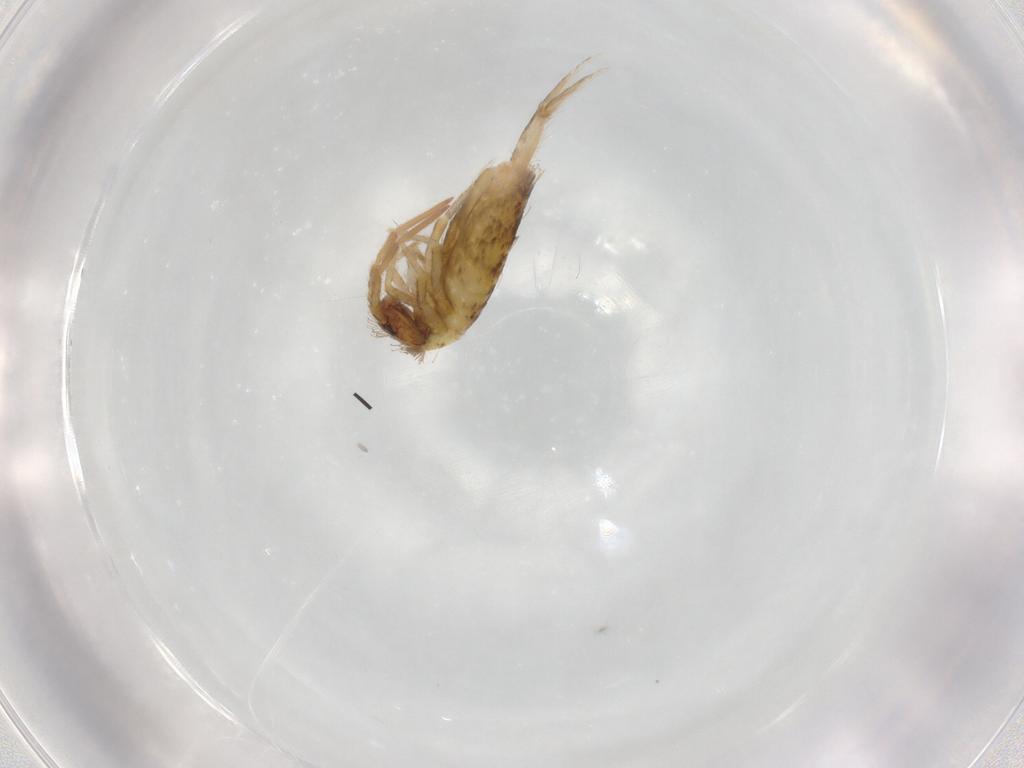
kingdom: Animalia
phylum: Arthropoda
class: Collembola
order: Entomobryomorpha
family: Entomobryidae
